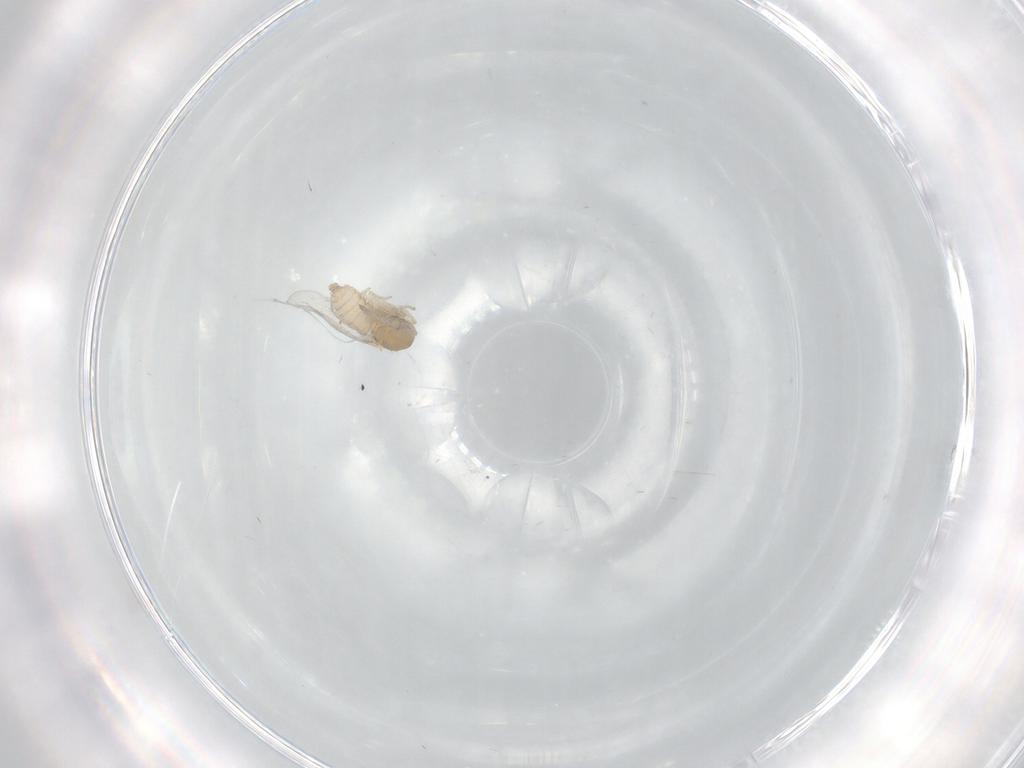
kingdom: Animalia
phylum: Arthropoda
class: Insecta
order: Diptera
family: Cecidomyiidae
